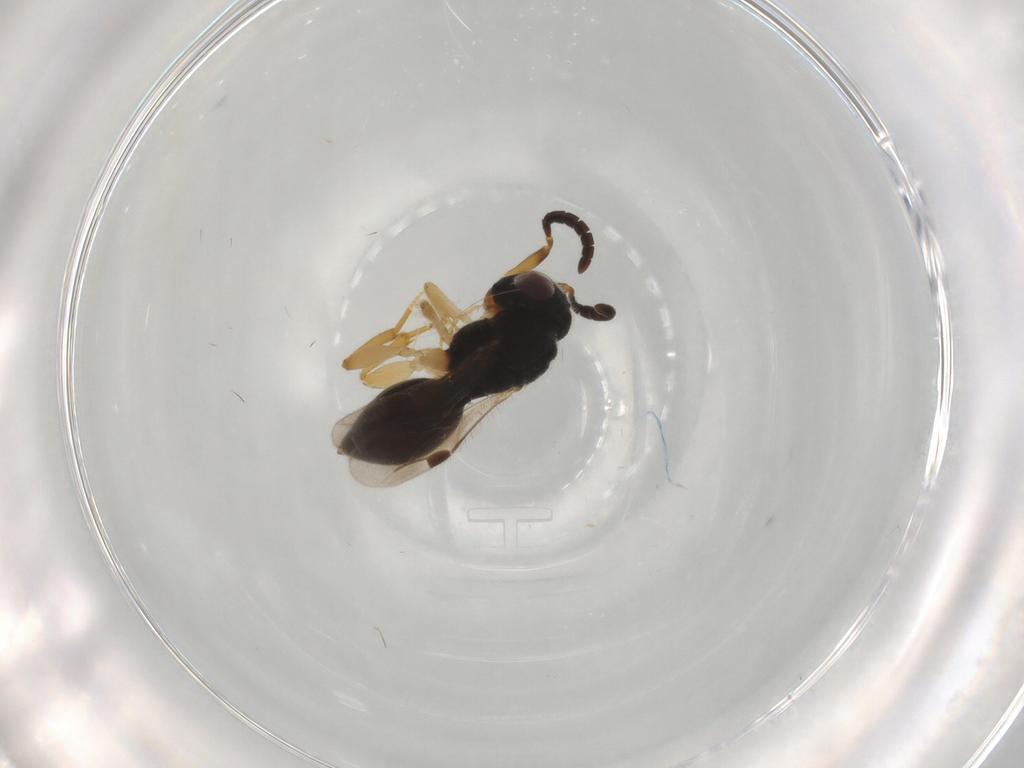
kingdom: Animalia
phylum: Arthropoda
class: Insecta
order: Hymenoptera
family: Eulophidae
